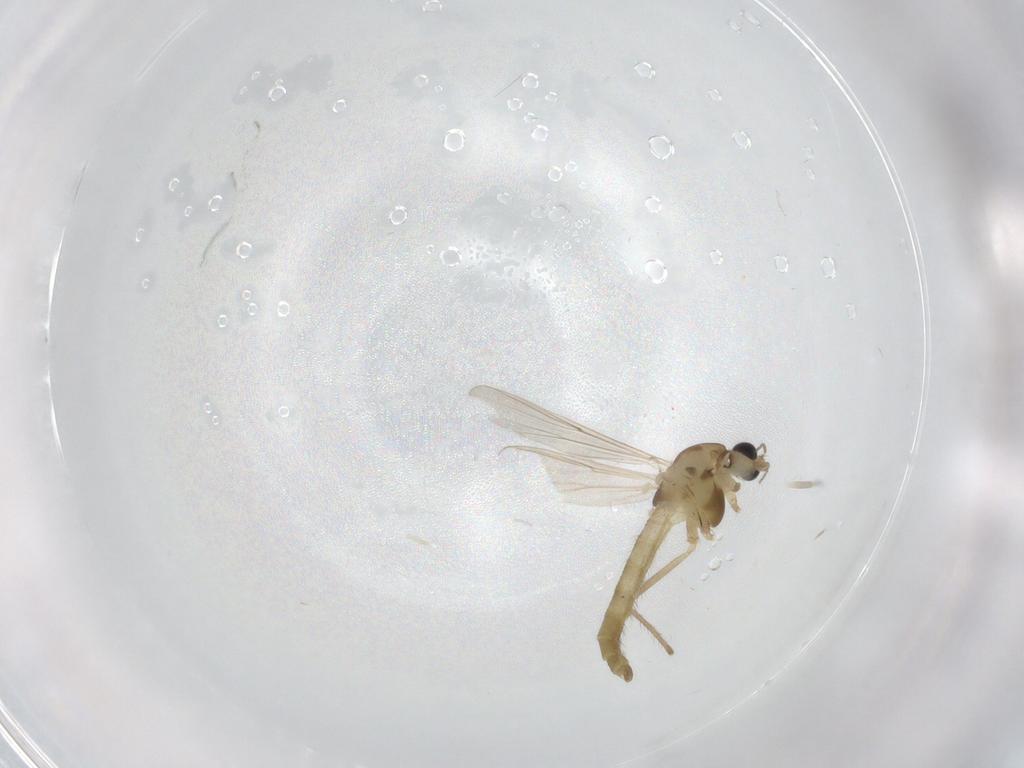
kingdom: Animalia
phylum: Arthropoda
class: Insecta
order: Diptera
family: Chironomidae
